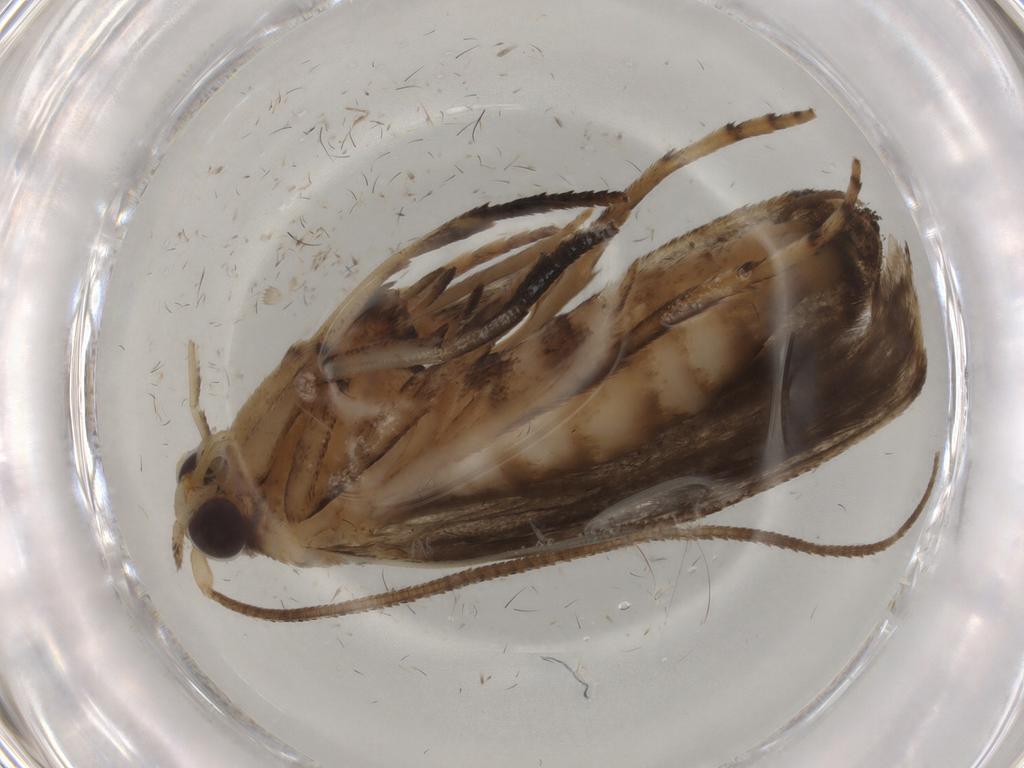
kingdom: Animalia
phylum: Arthropoda
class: Insecta
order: Lepidoptera
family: Yponomeutidae
